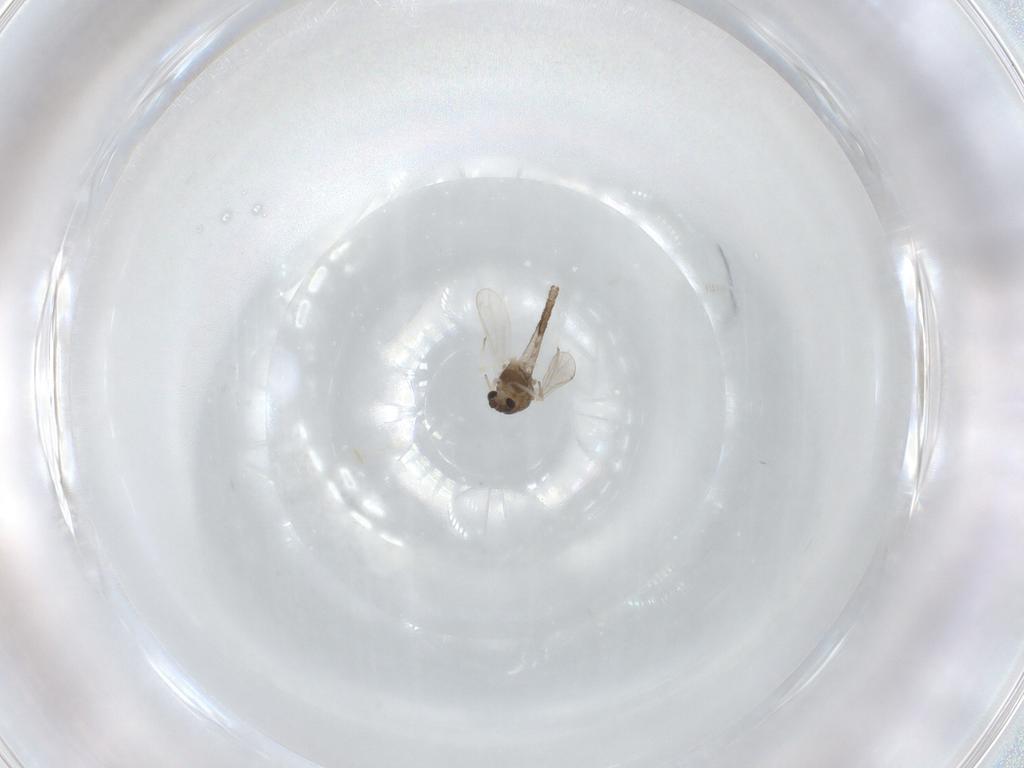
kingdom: Animalia
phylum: Arthropoda
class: Insecta
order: Diptera
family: Chironomidae
